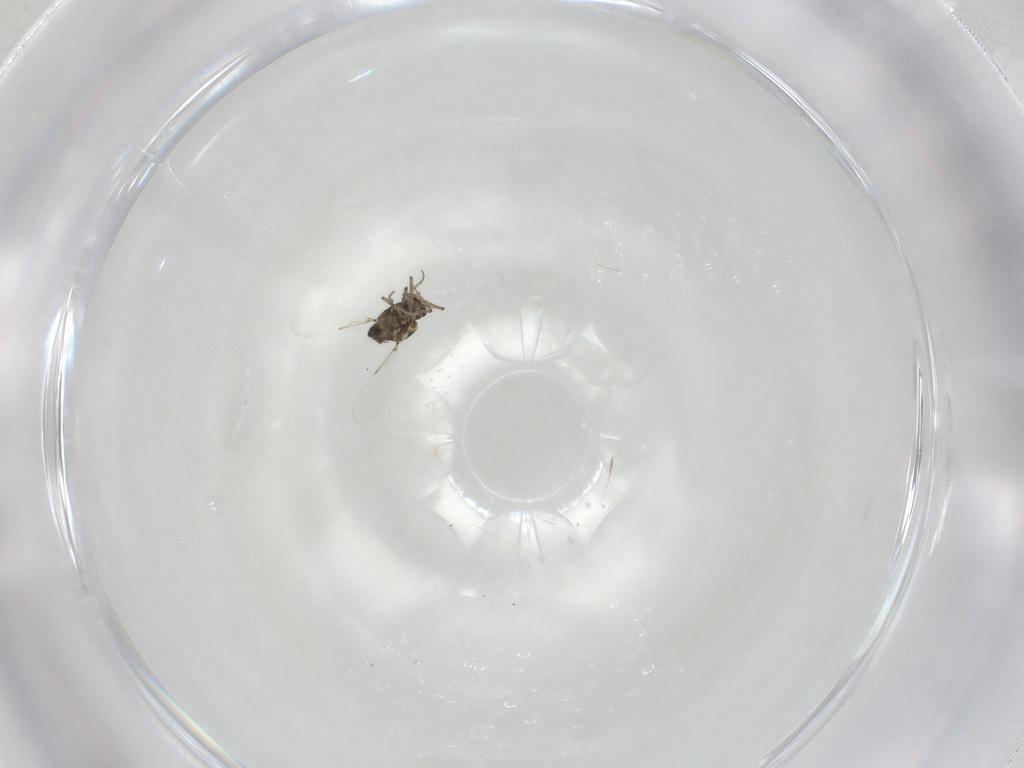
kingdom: Animalia
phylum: Arthropoda
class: Insecta
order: Diptera
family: Ceratopogonidae
